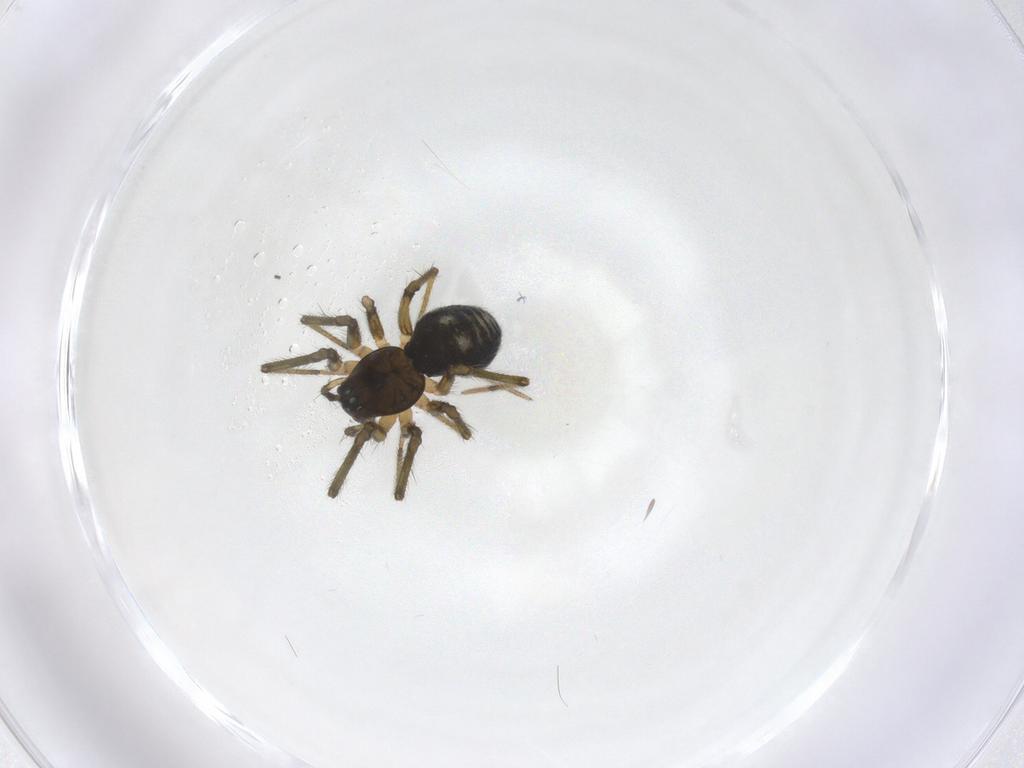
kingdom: Animalia
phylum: Arthropoda
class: Arachnida
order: Araneae
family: Linyphiidae
